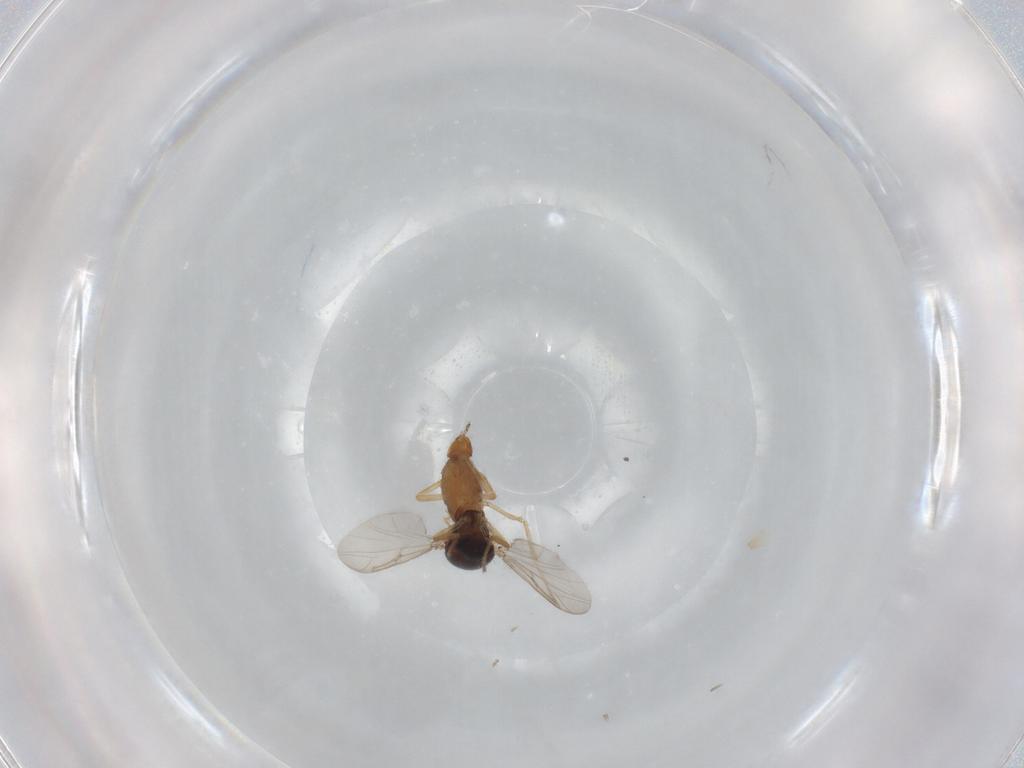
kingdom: Animalia
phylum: Arthropoda
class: Insecta
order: Diptera
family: Ceratopogonidae
